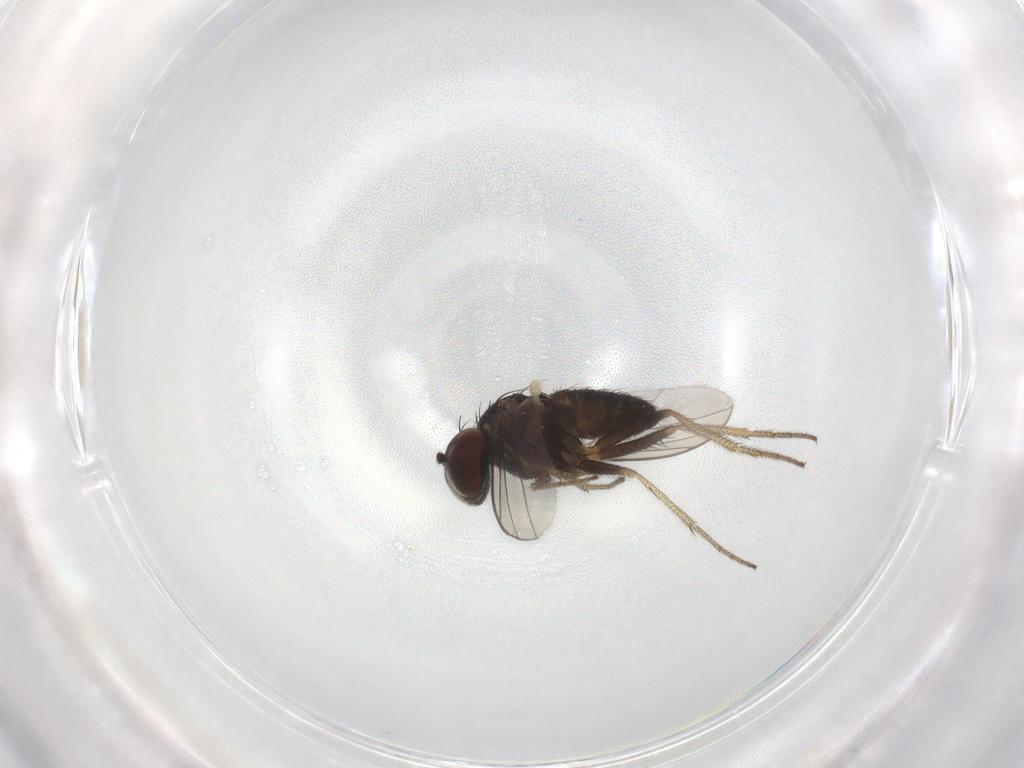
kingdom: Animalia
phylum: Arthropoda
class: Insecta
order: Diptera
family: Dolichopodidae
